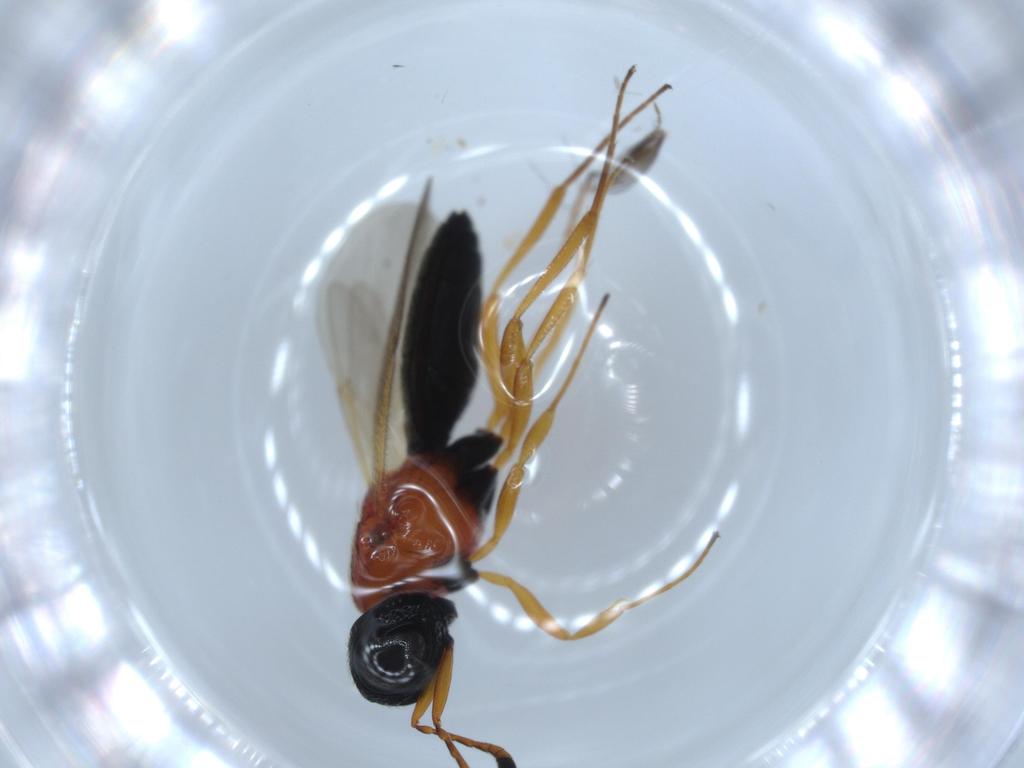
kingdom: Animalia
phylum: Arthropoda
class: Insecta
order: Hymenoptera
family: Scelionidae
